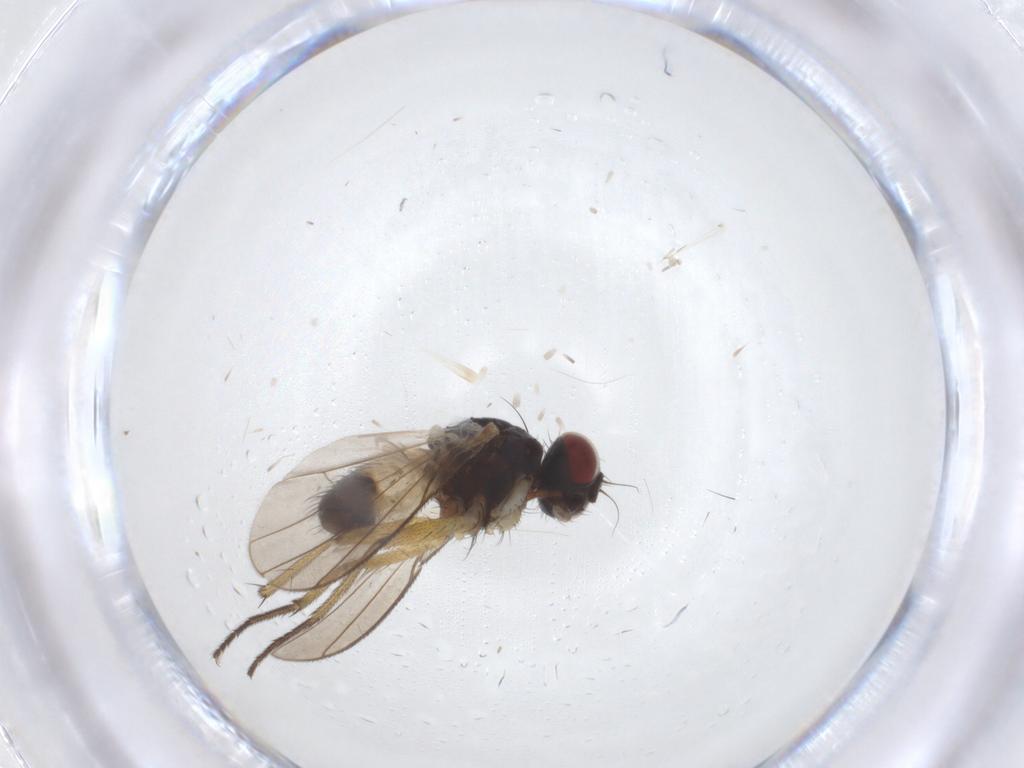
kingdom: Animalia
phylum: Arthropoda
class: Insecta
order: Diptera
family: Muscidae
